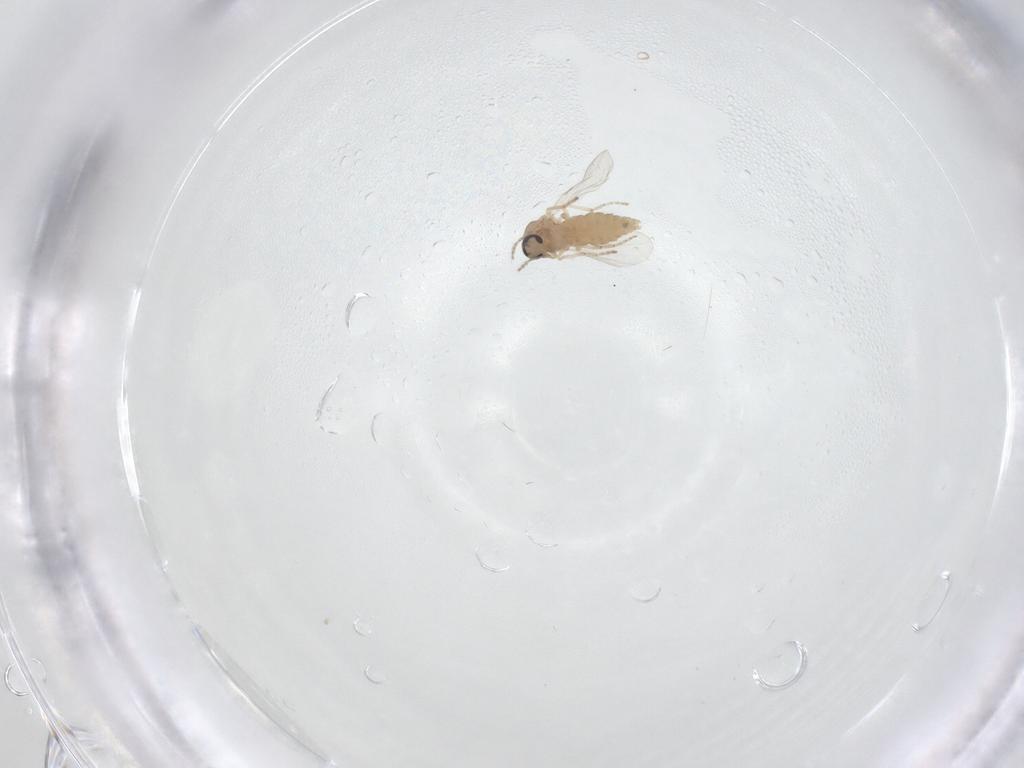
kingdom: Animalia
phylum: Arthropoda
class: Insecta
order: Diptera
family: Ceratopogonidae
